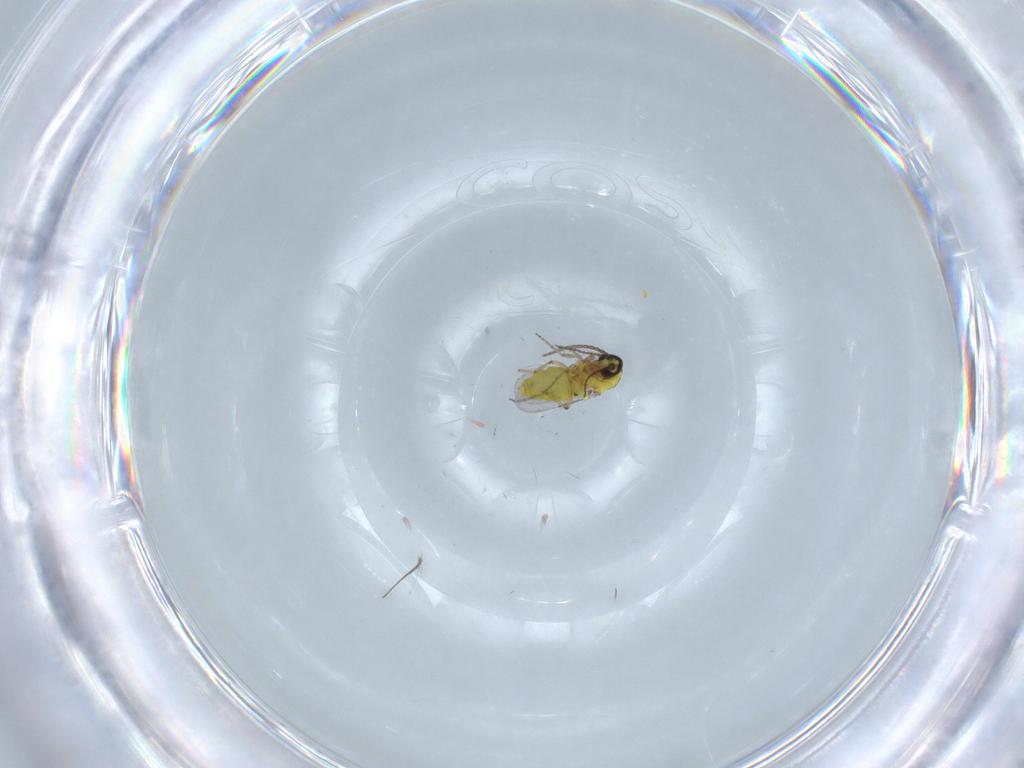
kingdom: Animalia
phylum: Arthropoda
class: Insecta
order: Diptera
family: Cecidomyiidae
